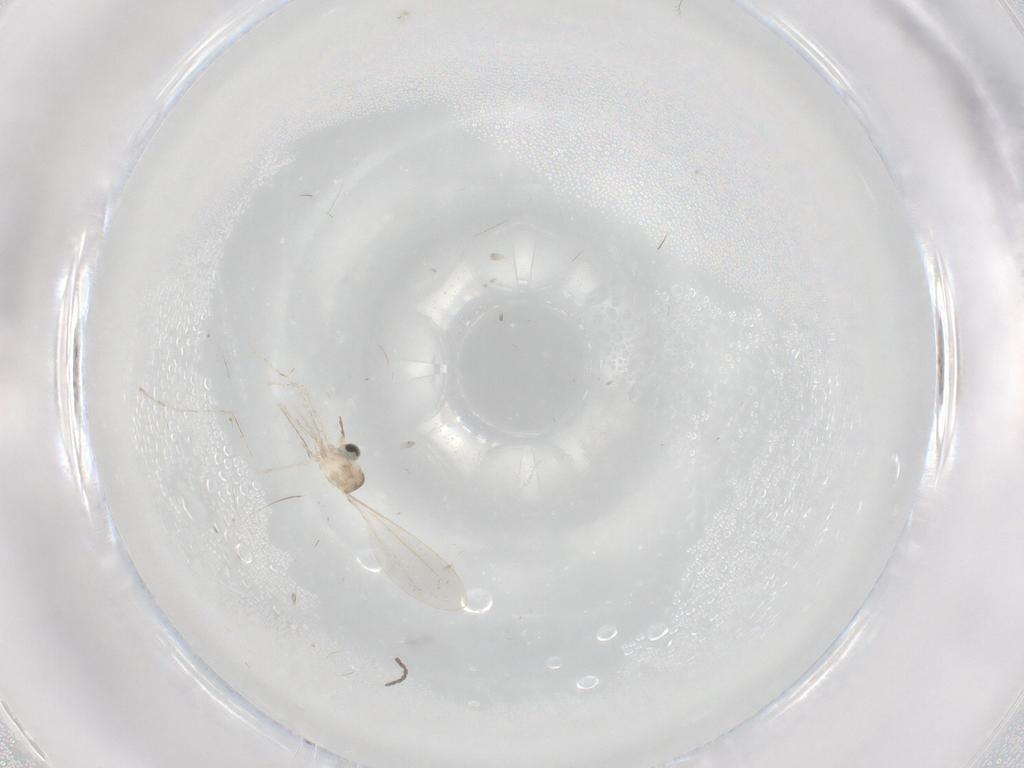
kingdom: Animalia
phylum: Arthropoda
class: Insecta
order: Diptera
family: Cecidomyiidae
